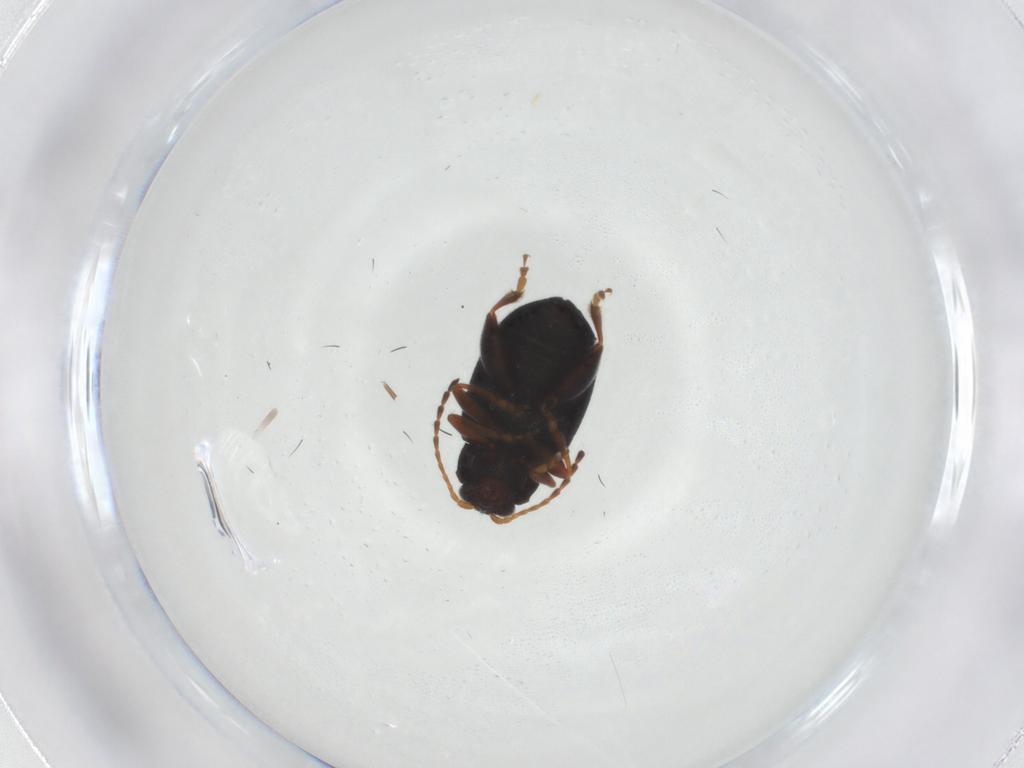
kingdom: Animalia
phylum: Arthropoda
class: Insecta
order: Coleoptera
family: Chrysomelidae
